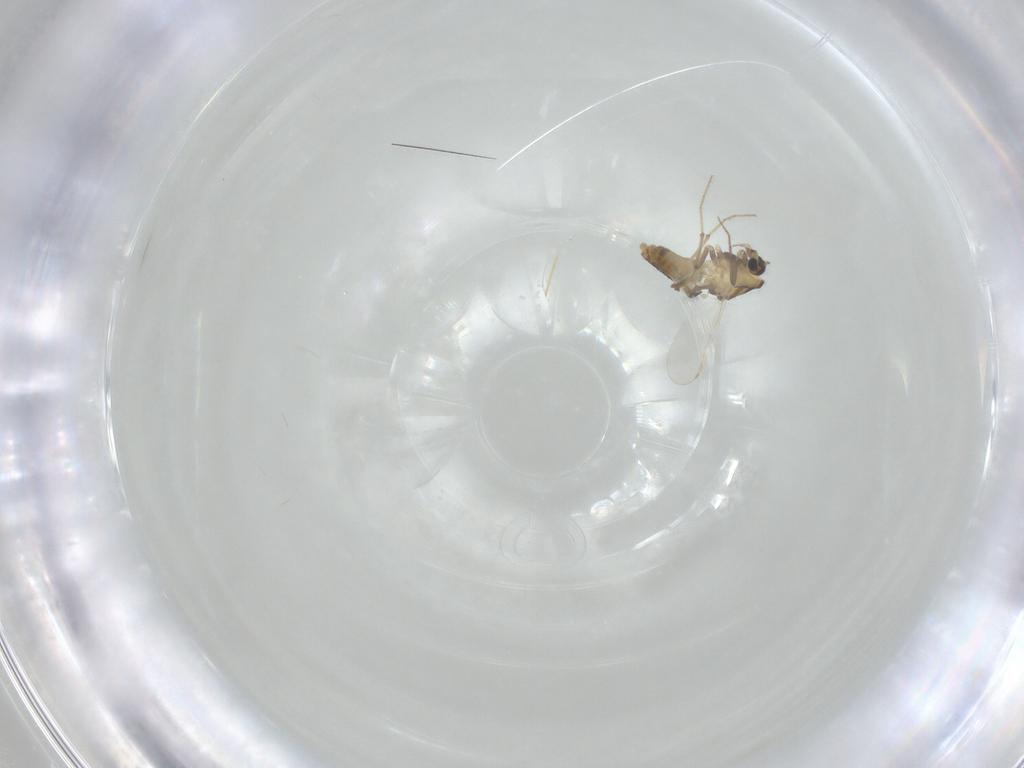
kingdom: Animalia
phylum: Arthropoda
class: Insecta
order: Diptera
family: Chironomidae
